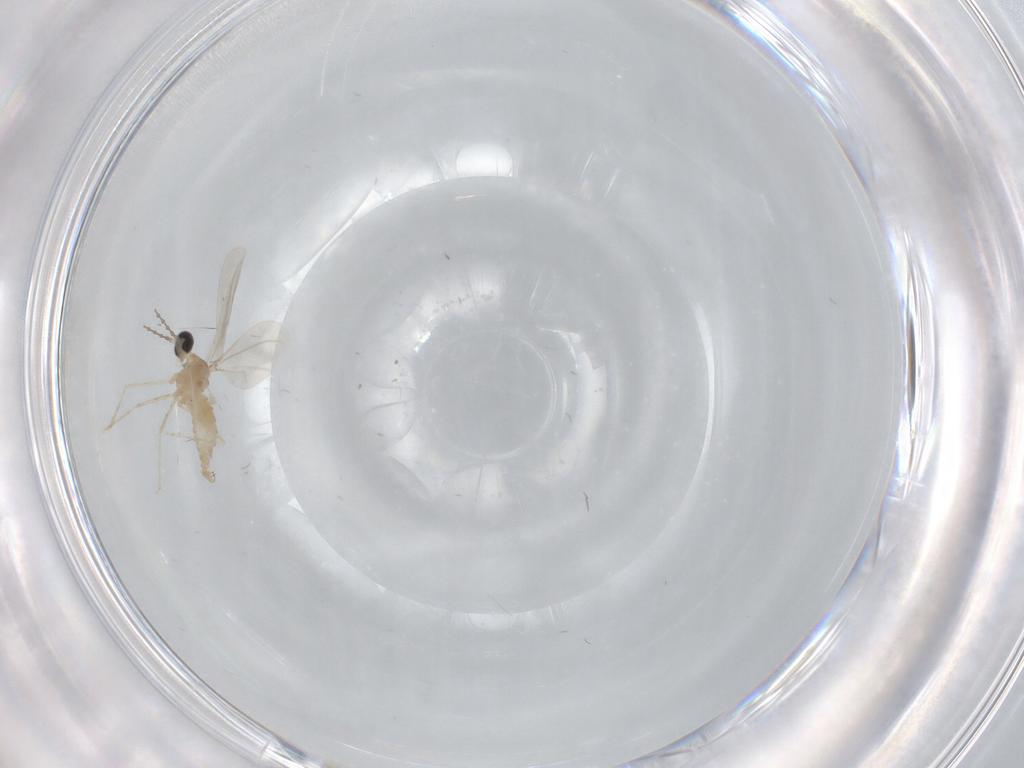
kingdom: Animalia
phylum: Arthropoda
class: Insecta
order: Diptera
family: Cecidomyiidae
